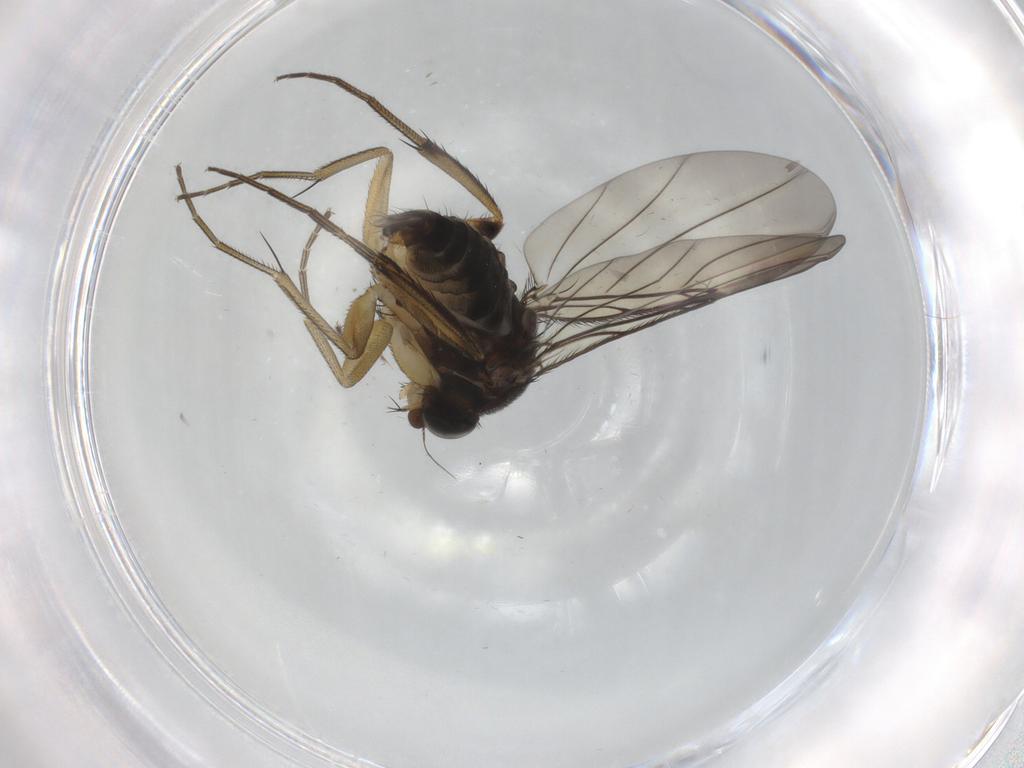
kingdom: Animalia
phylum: Arthropoda
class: Insecta
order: Diptera
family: Phoridae
